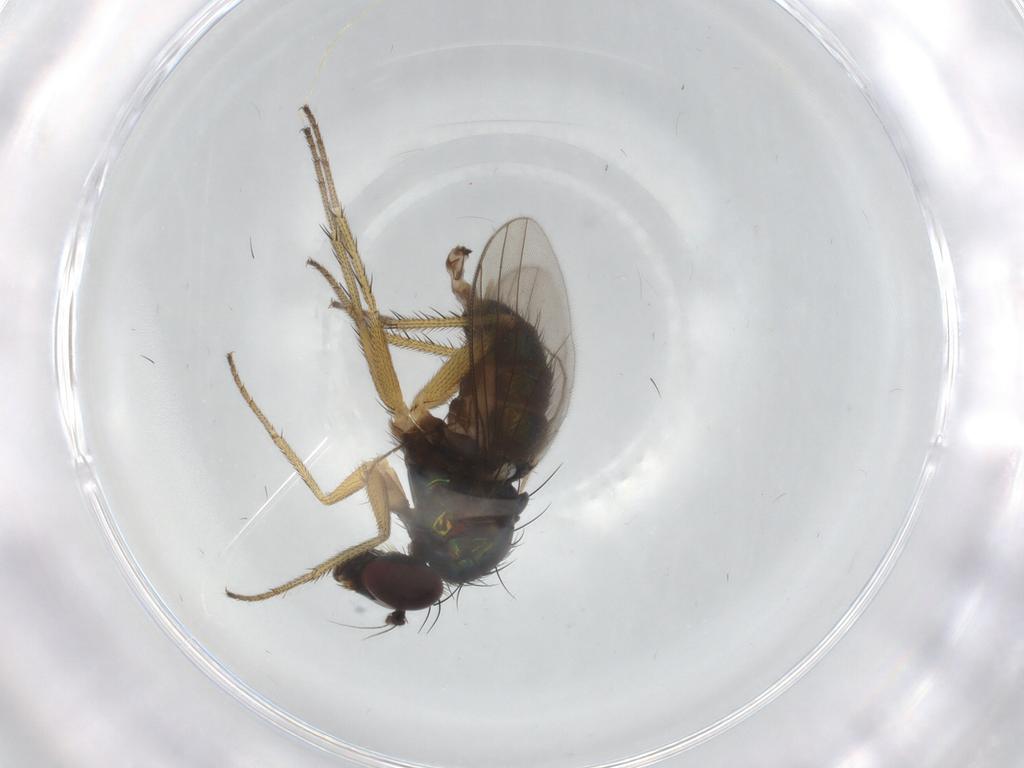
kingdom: Animalia
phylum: Arthropoda
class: Insecta
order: Diptera
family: Dolichopodidae
